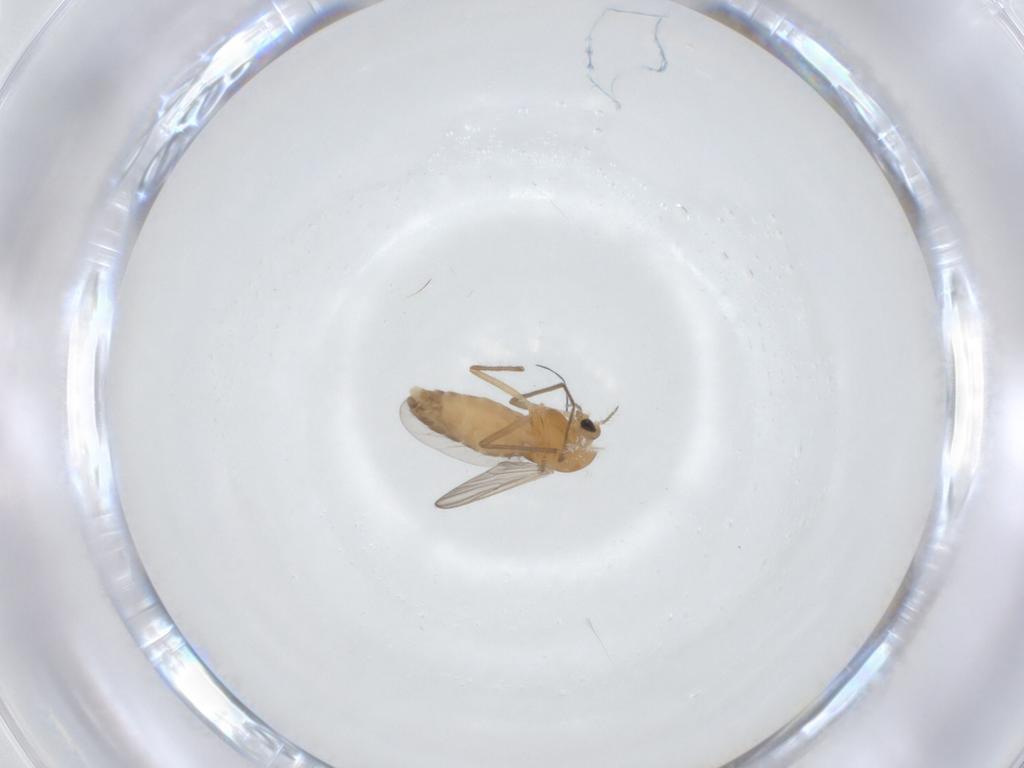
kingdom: Animalia
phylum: Arthropoda
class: Insecta
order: Diptera
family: Chironomidae
